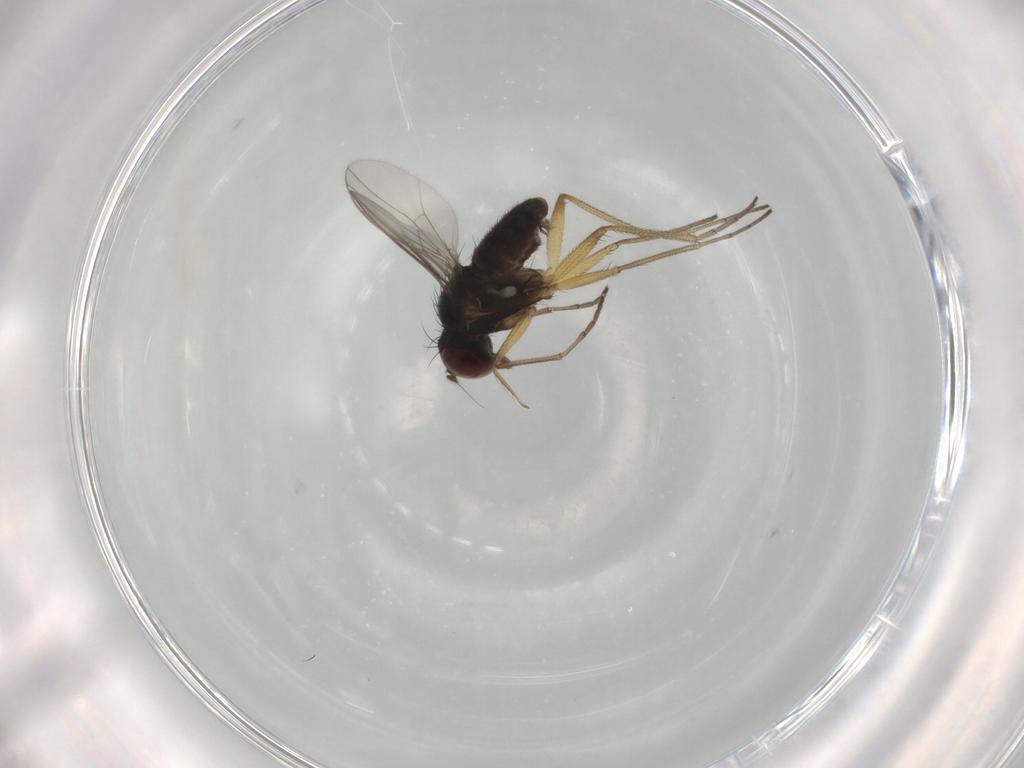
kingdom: Animalia
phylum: Arthropoda
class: Insecta
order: Diptera
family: Dolichopodidae
